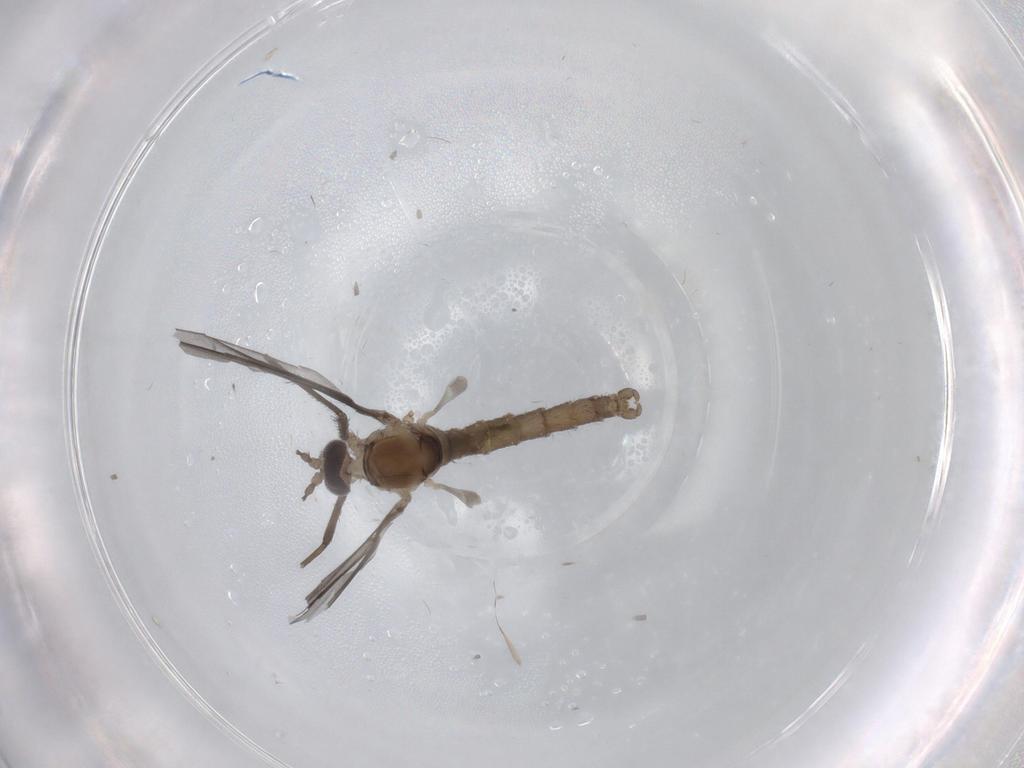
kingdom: Animalia
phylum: Arthropoda
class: Insecta
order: Diptera
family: Cecidomyiidae
